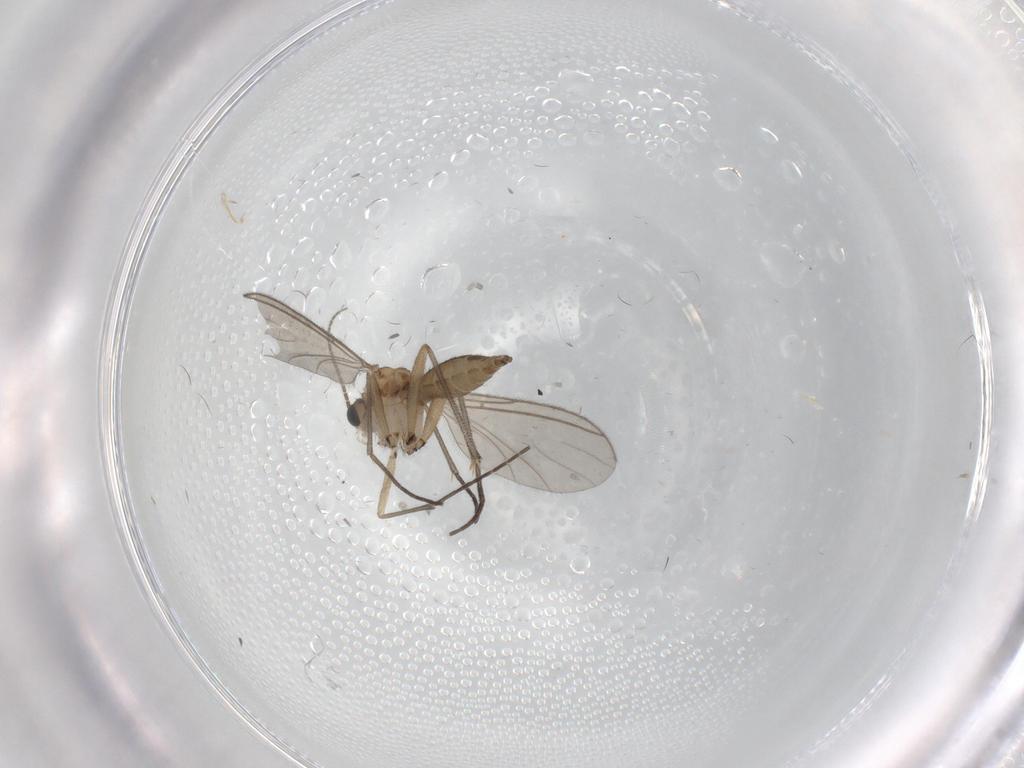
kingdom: Animalia
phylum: Arthropoda
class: Insecta
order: Diptera
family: Sciaridae
